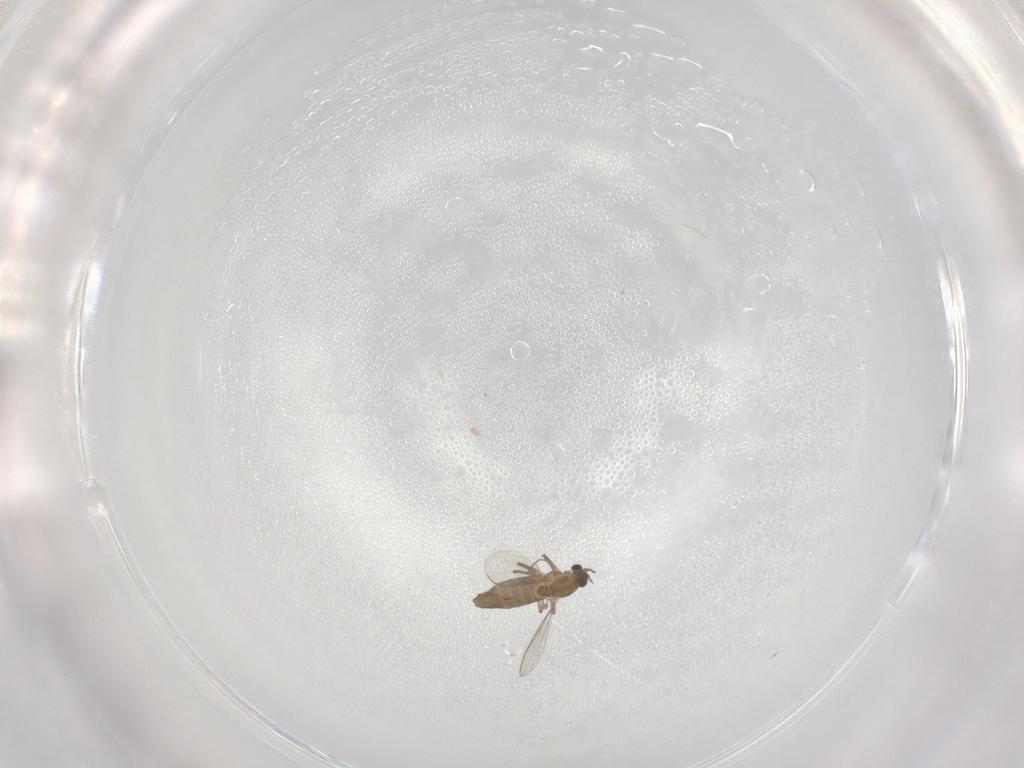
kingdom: Animalia
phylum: Arthropoda
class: Insecta
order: Diptera
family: Chironomidae
